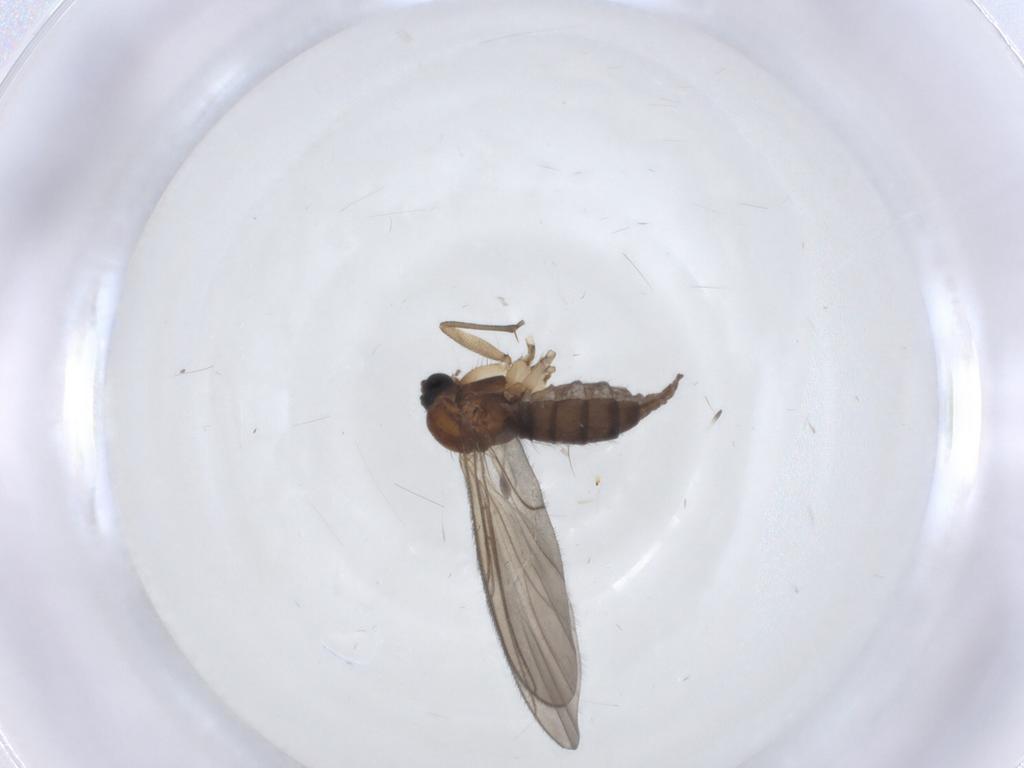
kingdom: Animalia
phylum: Arthropoda
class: Insecta
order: Diptera
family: Sciaridae
